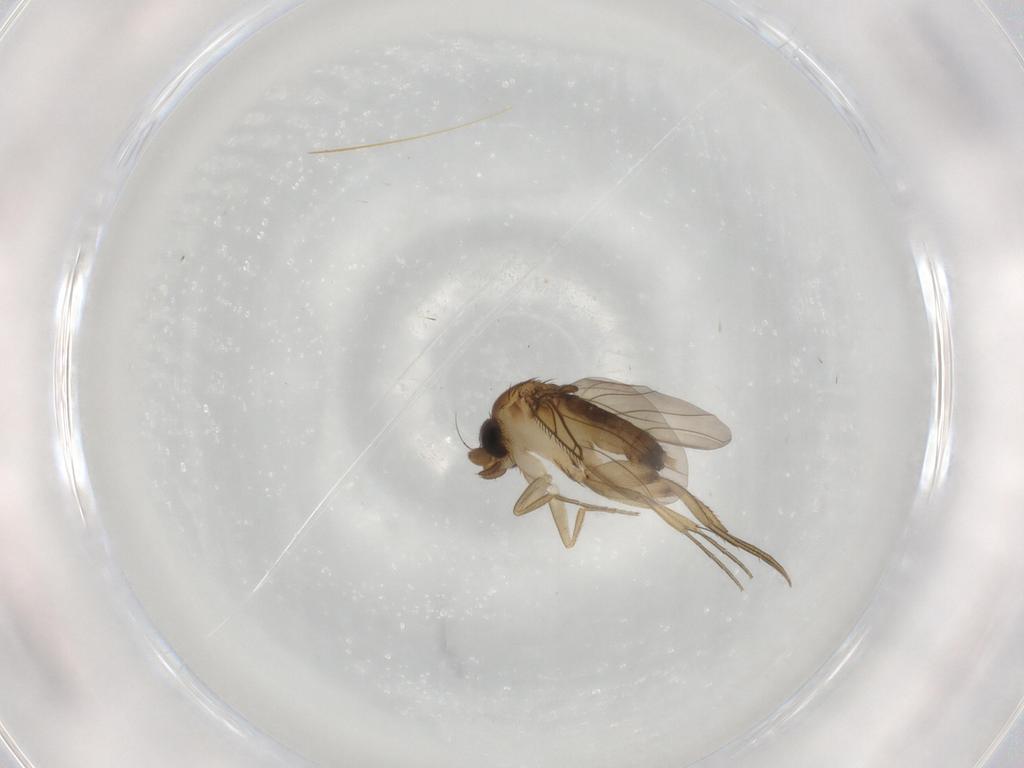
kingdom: Animalia
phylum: Arthropoda
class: Insecta
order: Diptera
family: Phoridae
